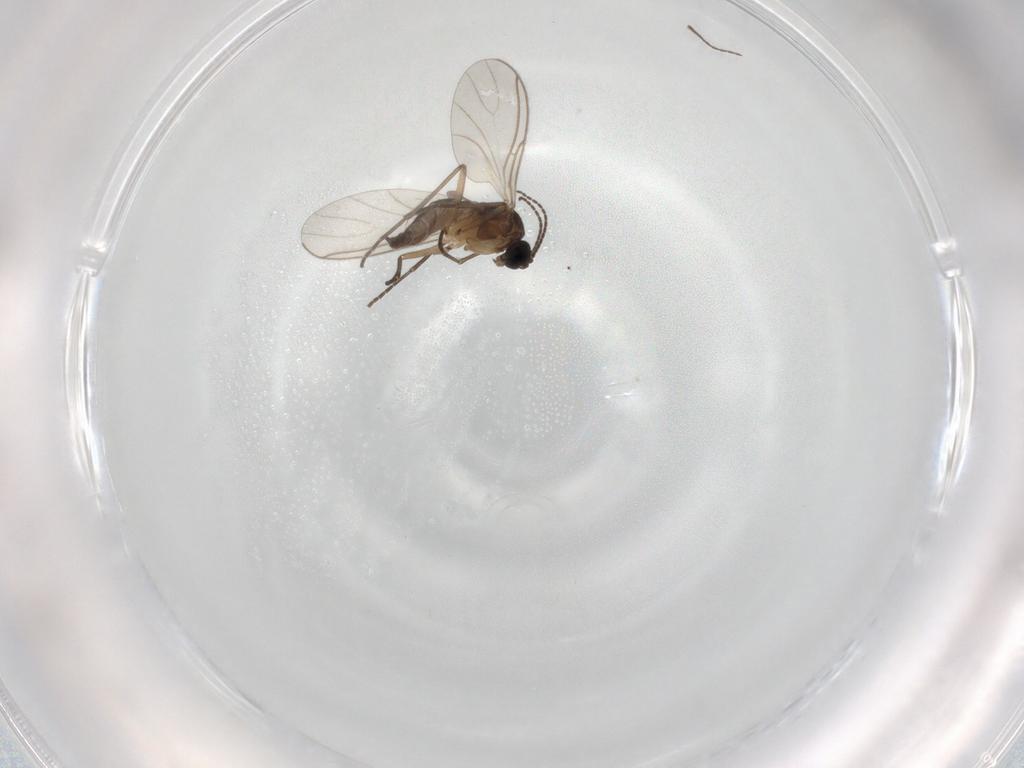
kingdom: Animalia
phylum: Arthropoda
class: Insecta
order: Diptera
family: Sciaridae
